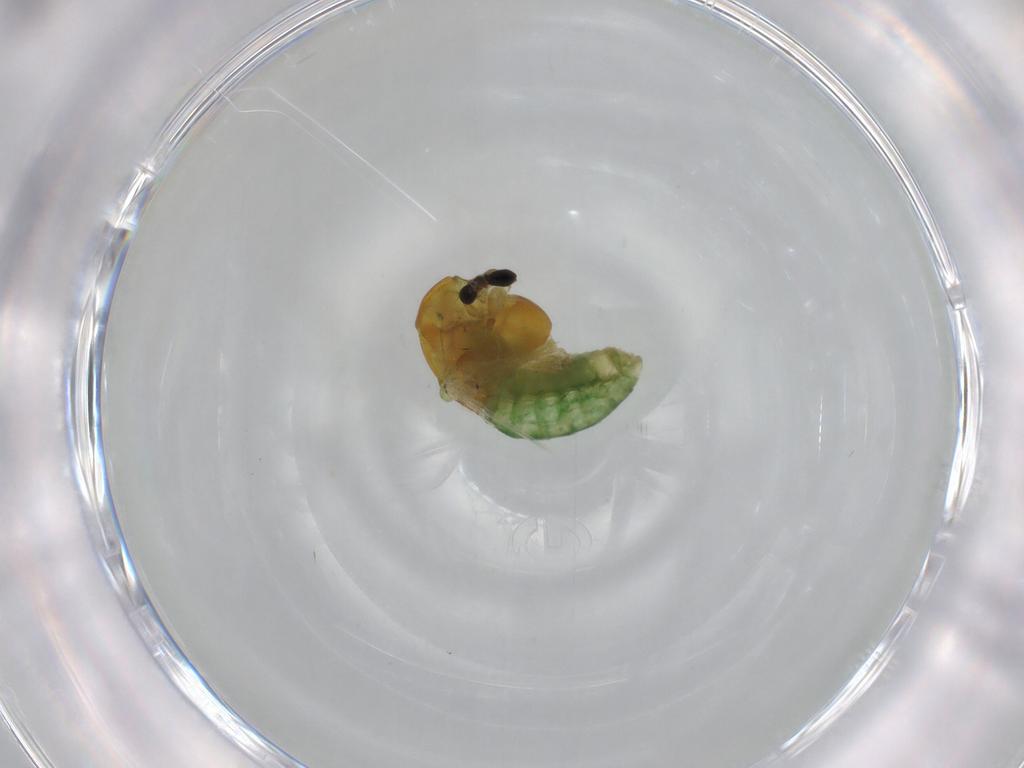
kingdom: Animalia
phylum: Arthropoda
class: Insecta
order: Diptera
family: Chironomidae
